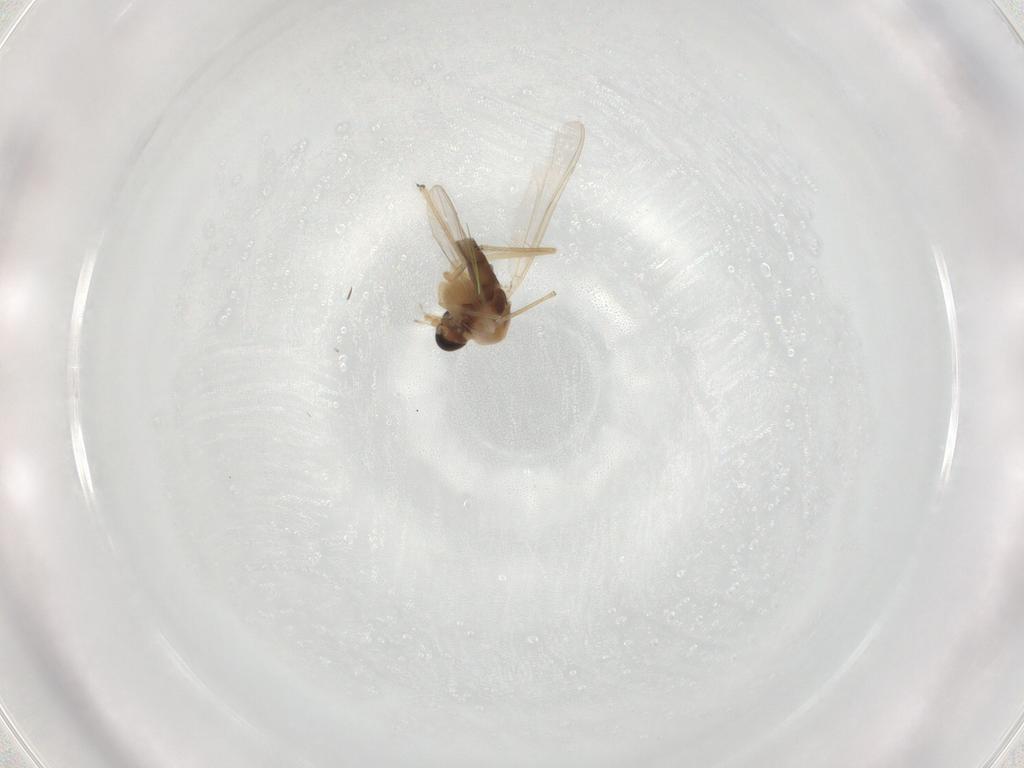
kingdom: Animalia
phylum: Arthropoda
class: Insecta
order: Diptera
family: Chironomidae
